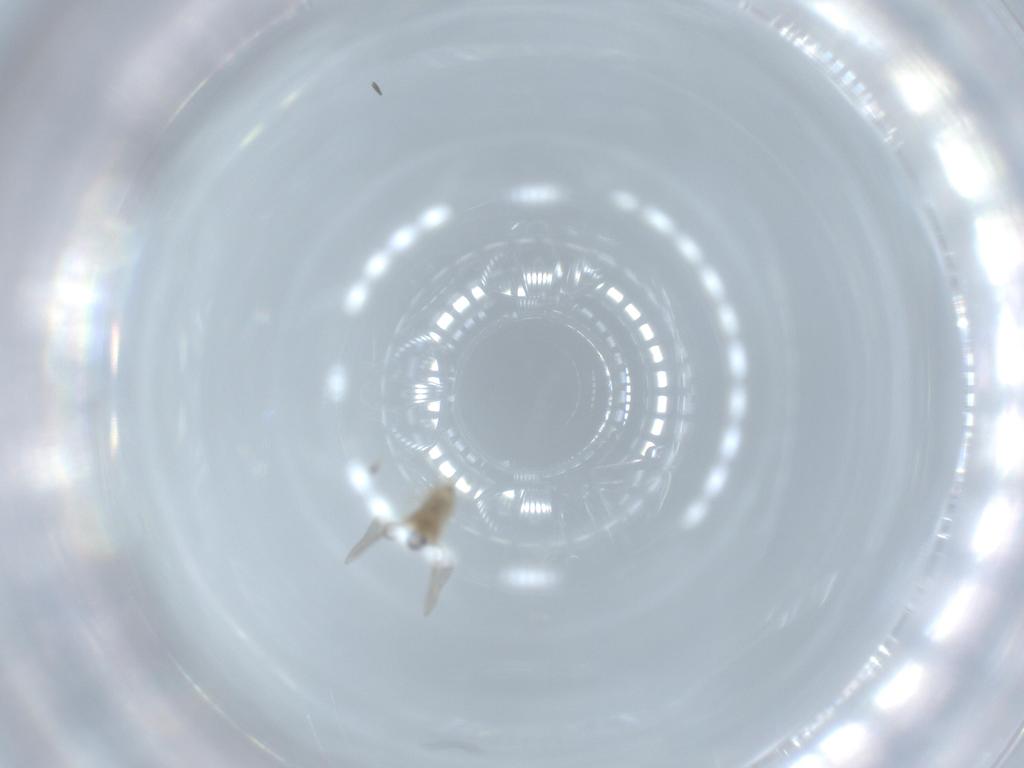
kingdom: Animalia
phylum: Arthropoda
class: Insecta
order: Diptera
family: Cecidomyiidae
